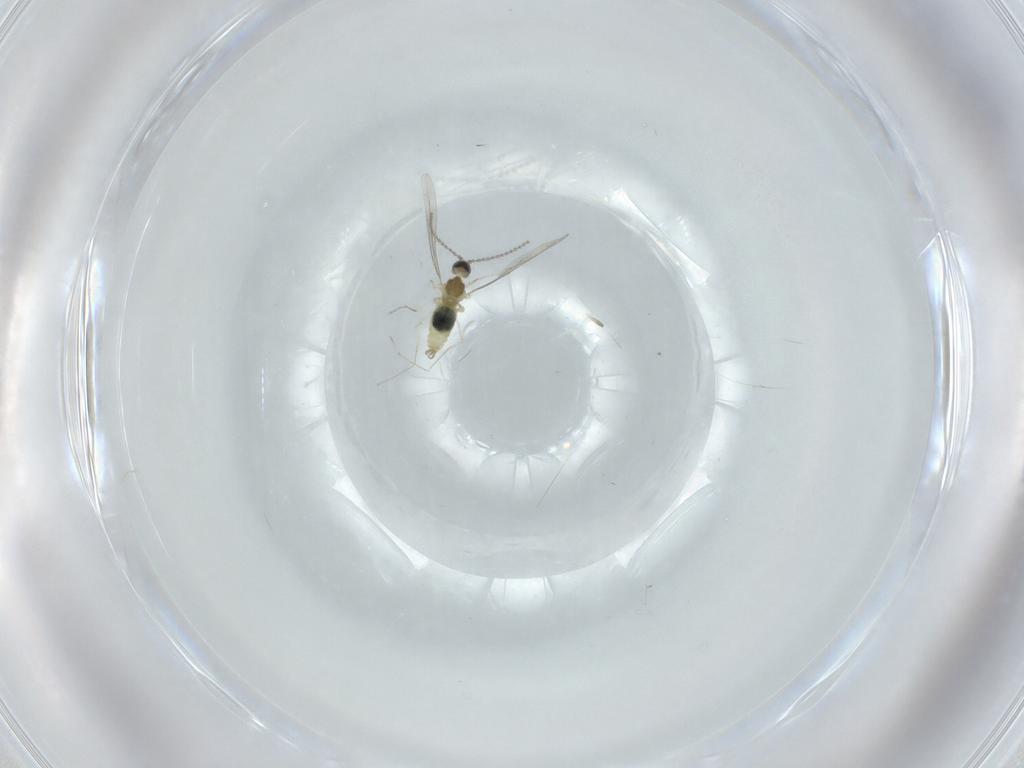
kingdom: Animalia
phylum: Arthropoda
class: Insecta
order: Diptera
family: Cecidomyiidae
